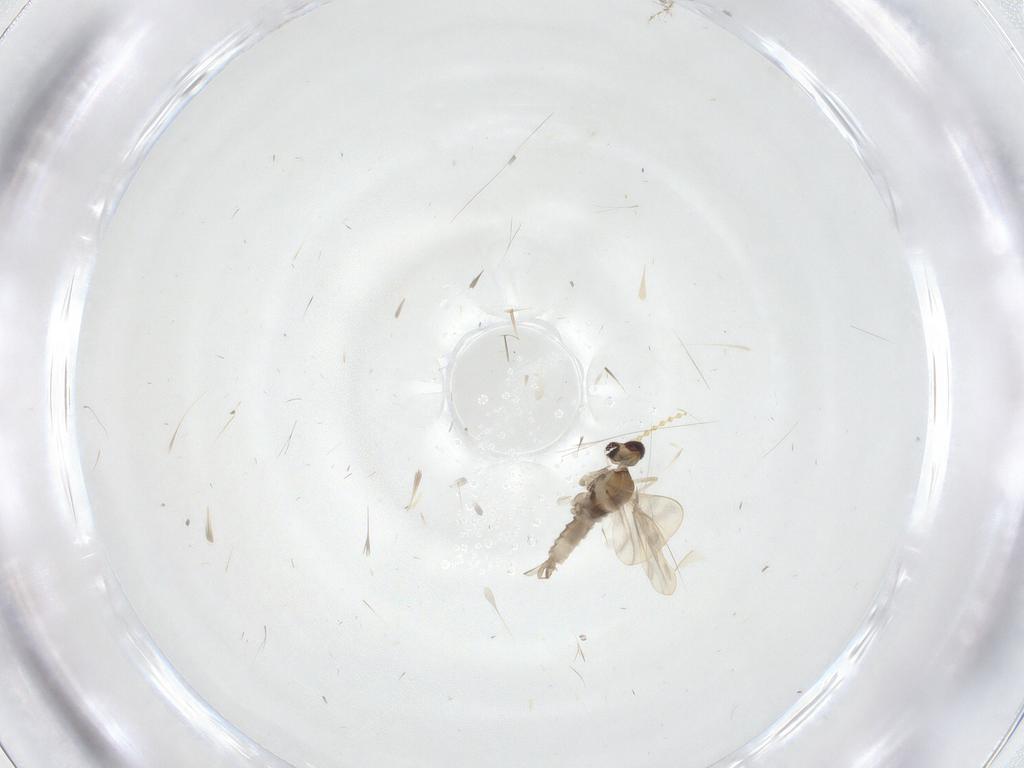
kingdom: Animalia
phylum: Arthropoda
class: Insecta
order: Diptera
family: Cecidomyiidae
